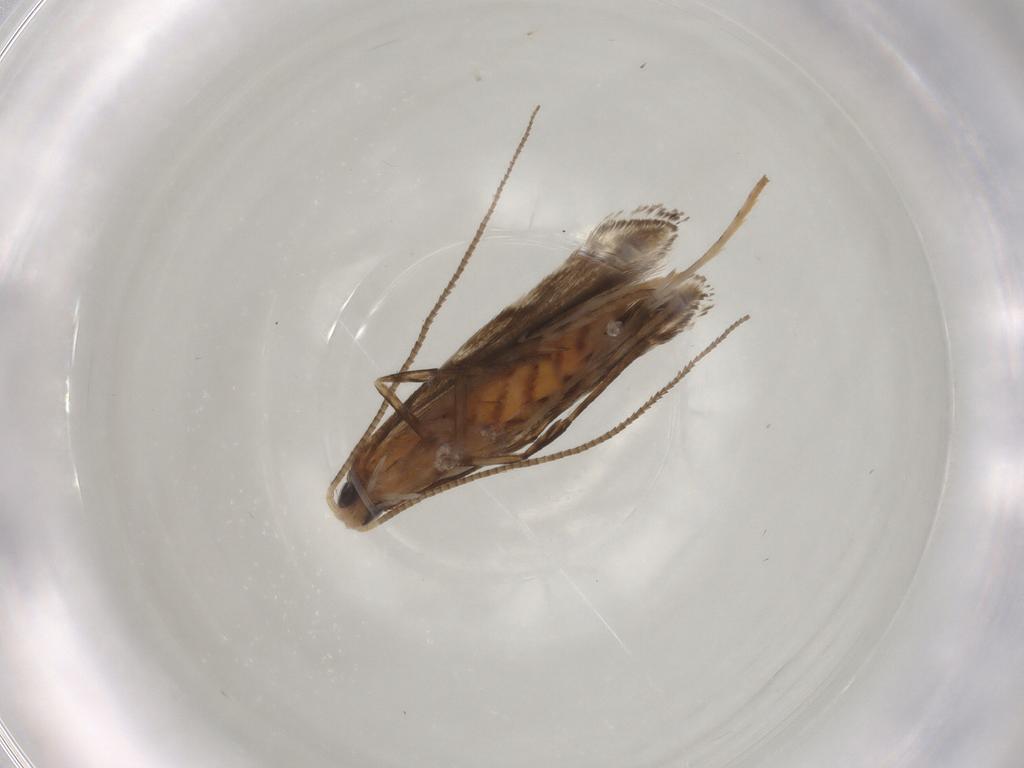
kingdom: Animalia
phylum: Arthropoda
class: Insecta
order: Lepidoptera
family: Gracillariidae
